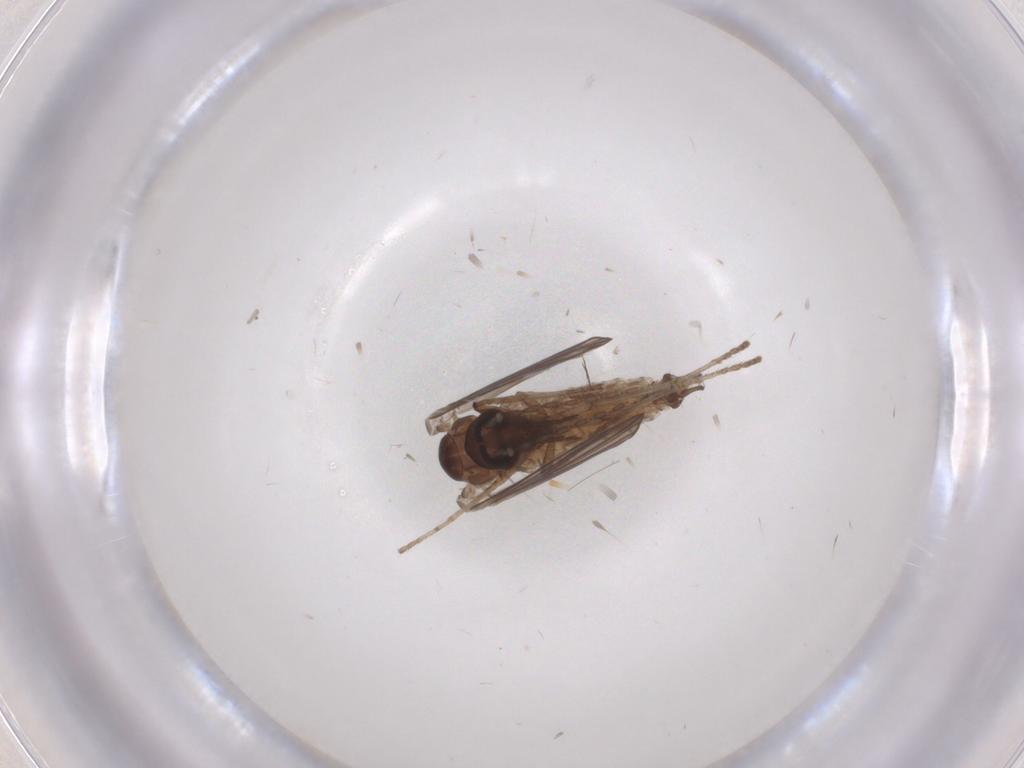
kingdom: Animalia
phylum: Arthropoda
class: Insecta
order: Diptera
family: Psychodidae
